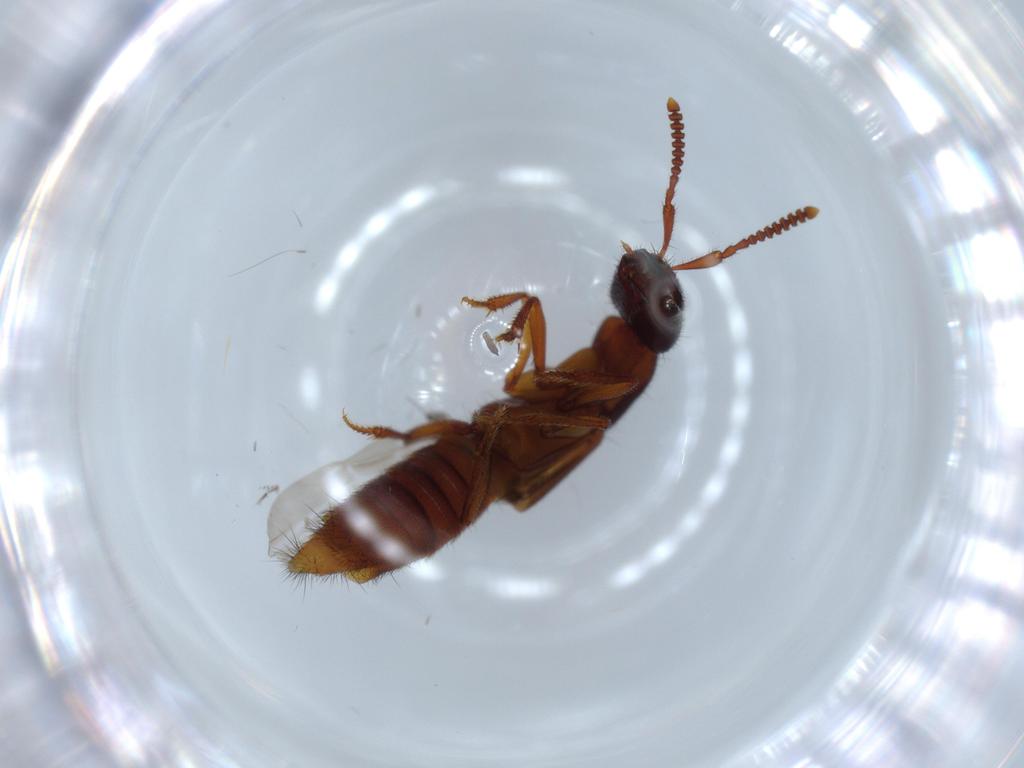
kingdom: Animalia
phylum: Arthropoda
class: Insecta
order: Coleoptera
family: Staphylinidae
